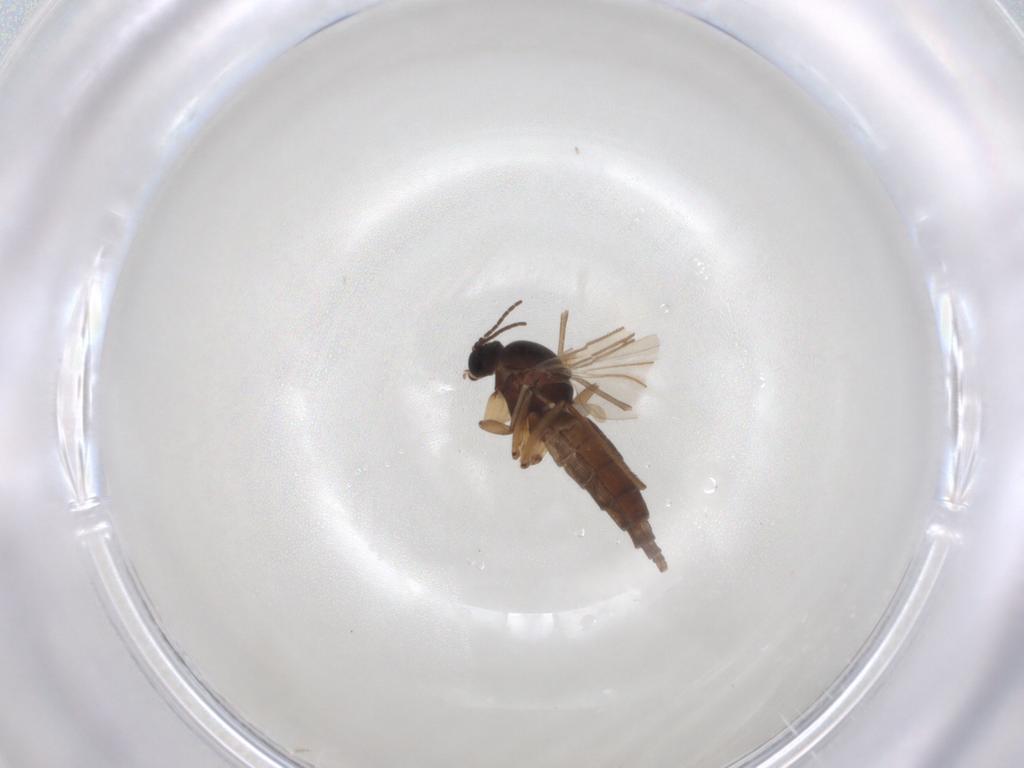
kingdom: Animalia
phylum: Arthropoda
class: Insecta
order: Diptera
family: Sciaridae
